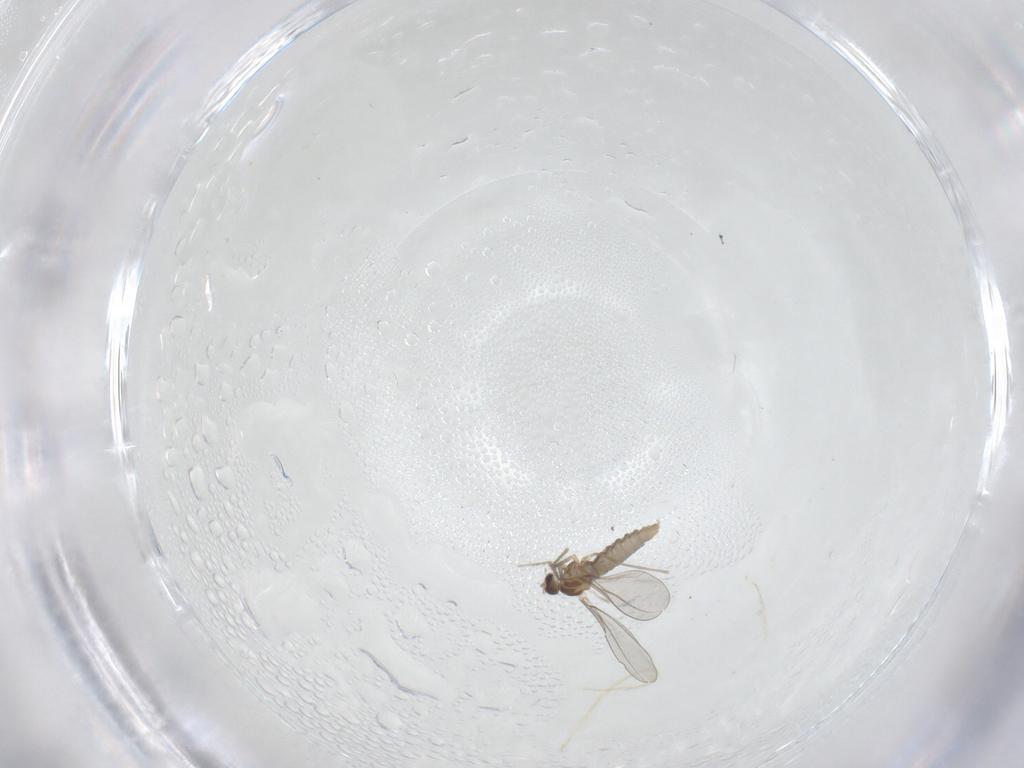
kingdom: Animalia
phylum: Arthropoda
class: Insecta
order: Diptera
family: Cecidomyiidae
